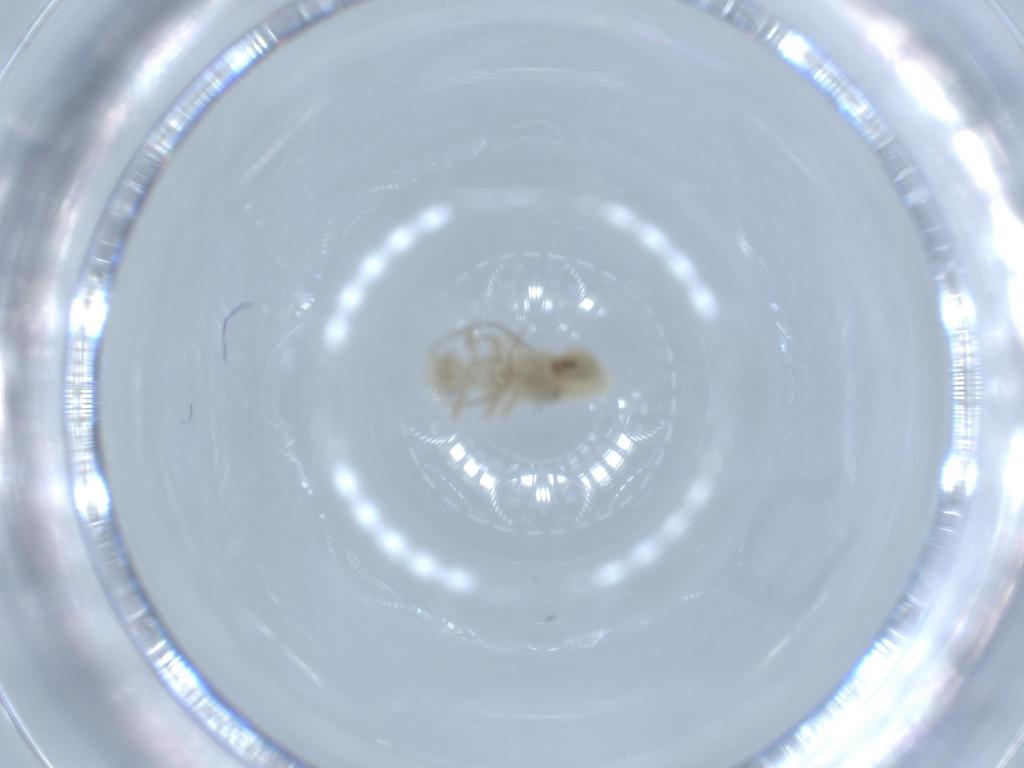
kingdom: Animalia
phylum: Arthropoda
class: Insecta
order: Psocodea
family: Caeciliusidae
